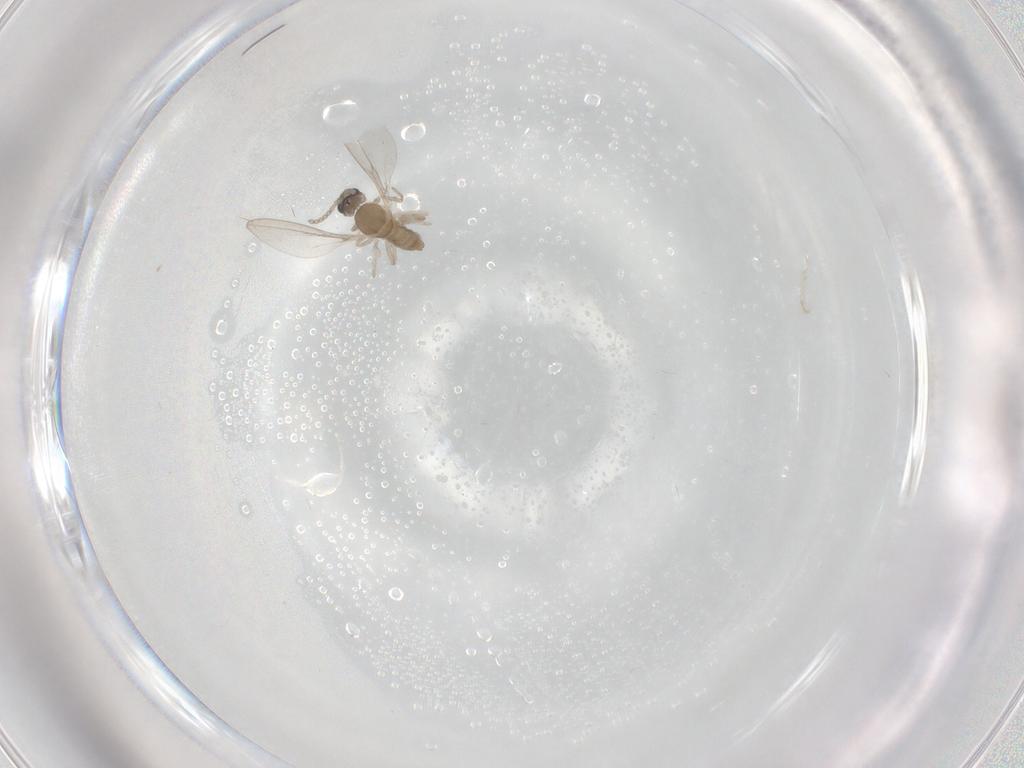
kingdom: Animalia
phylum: Arthropoda
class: Insecta
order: Diptera
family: Cecidomyiidae
